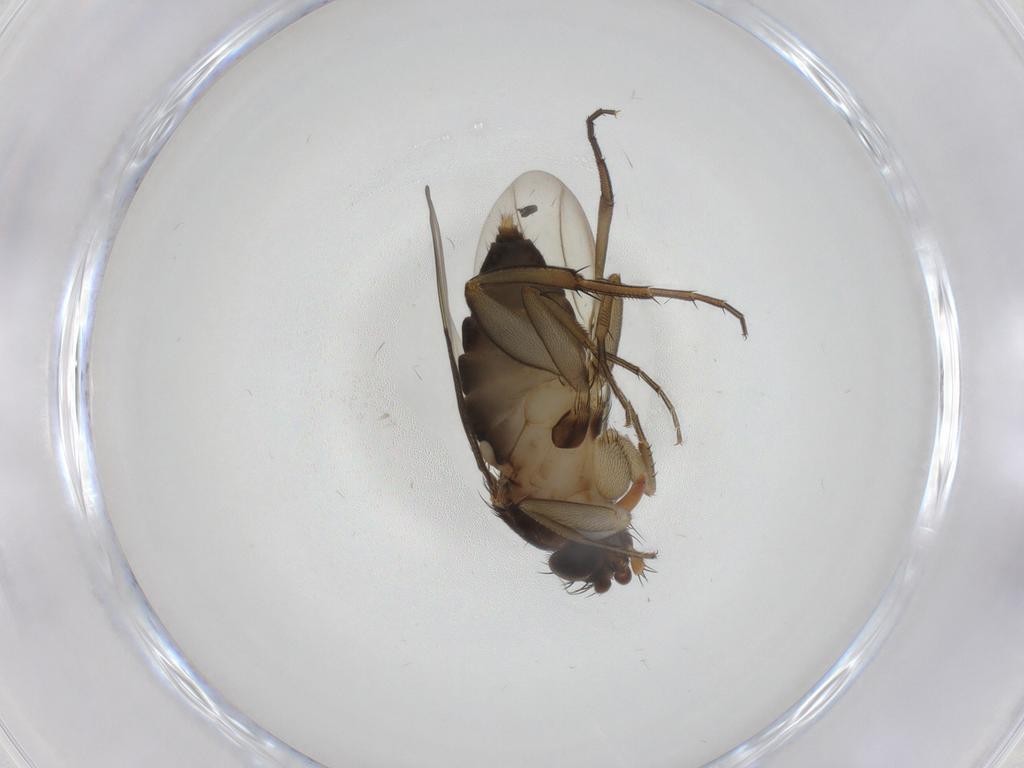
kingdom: Animalia
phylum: Arthropoda
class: Insecta
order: Diptera
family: Phoridae
